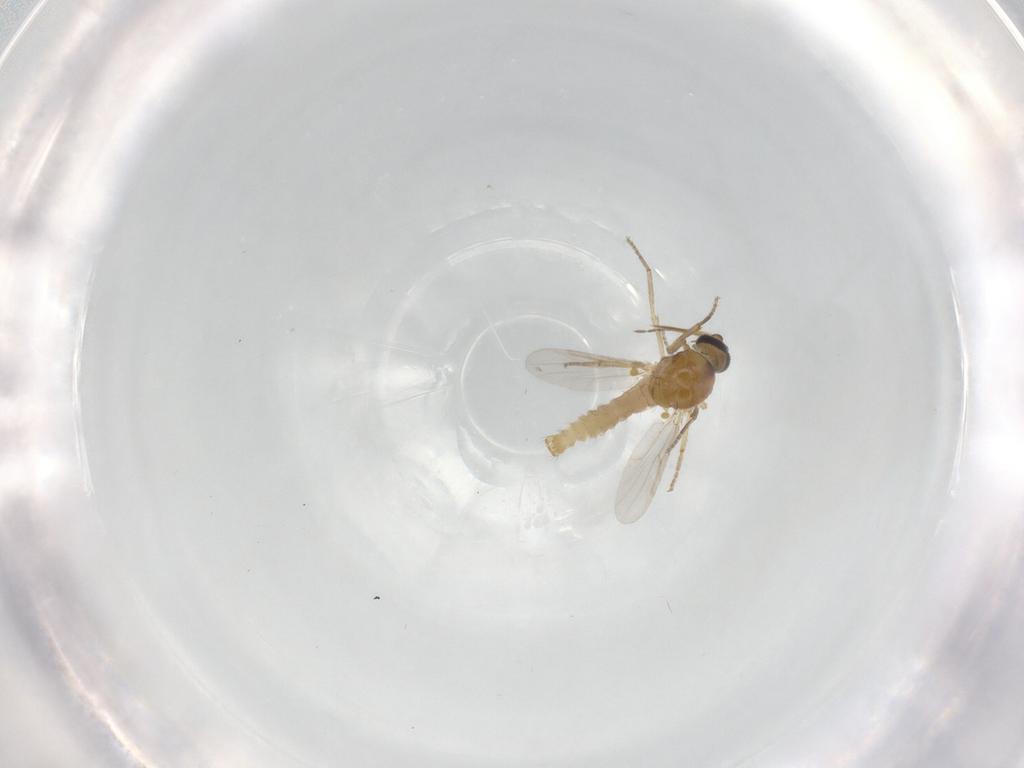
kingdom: Animalia
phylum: Arthropoda
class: Insecta
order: Diptera
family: Ceratopogonidae
